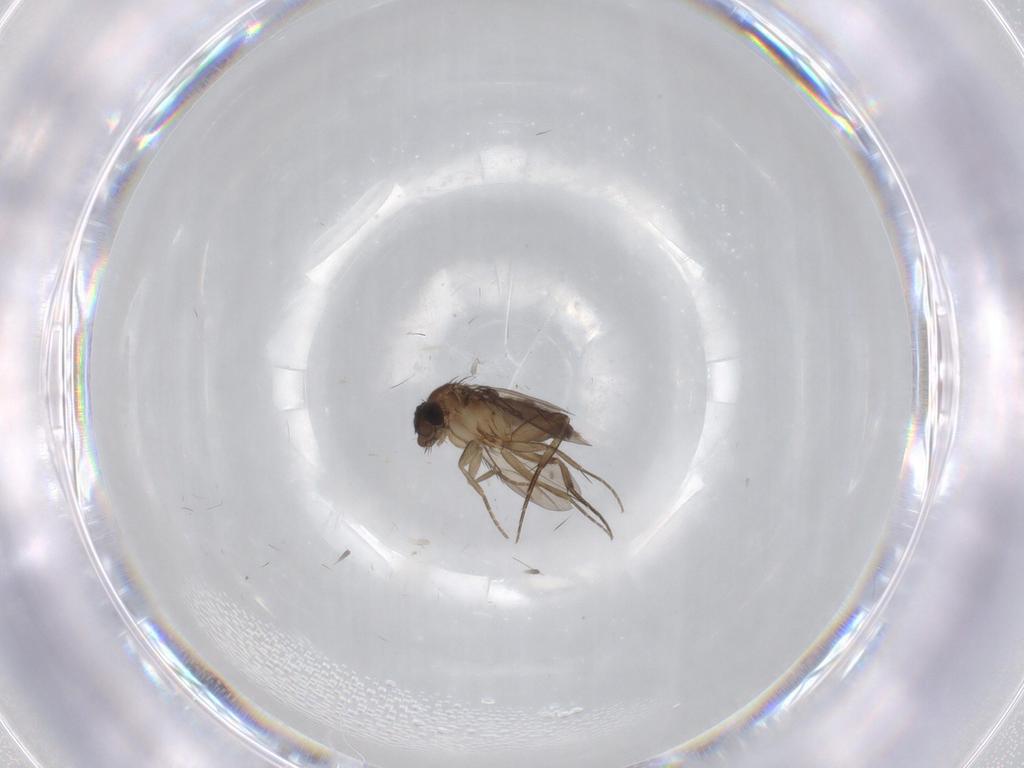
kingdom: Animalia
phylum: Arthropoda
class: Insecta
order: Diptera
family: Phoridae
